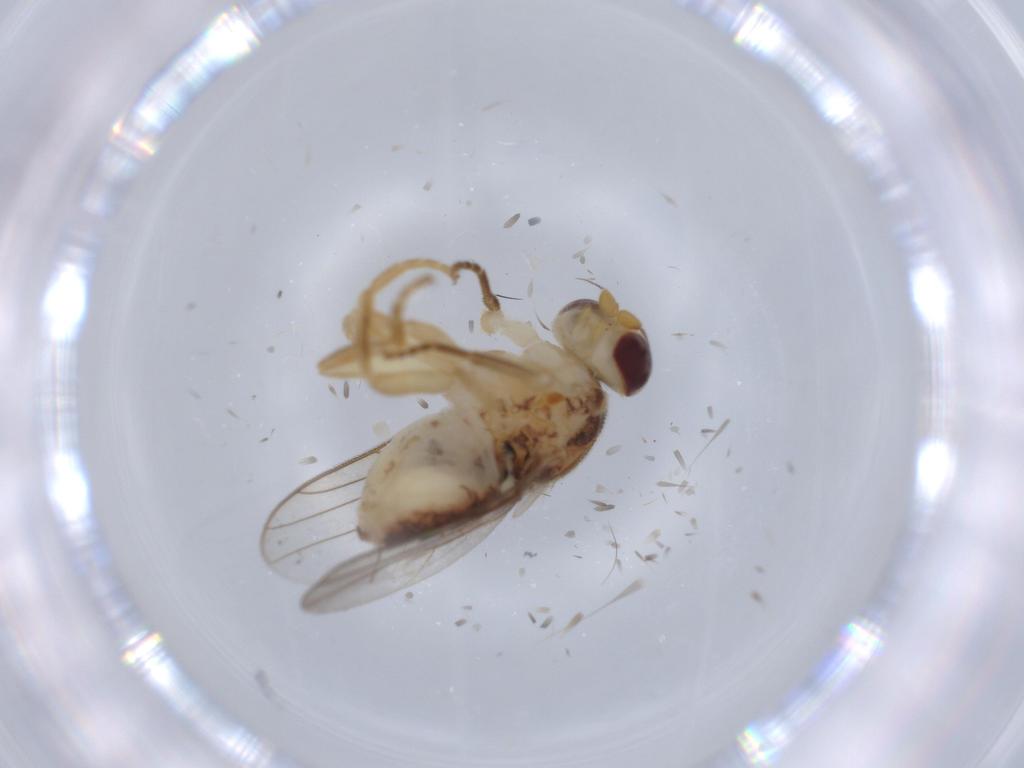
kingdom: Animalia
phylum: Arthropoda
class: Insecta
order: Diptera
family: Chloropidae
